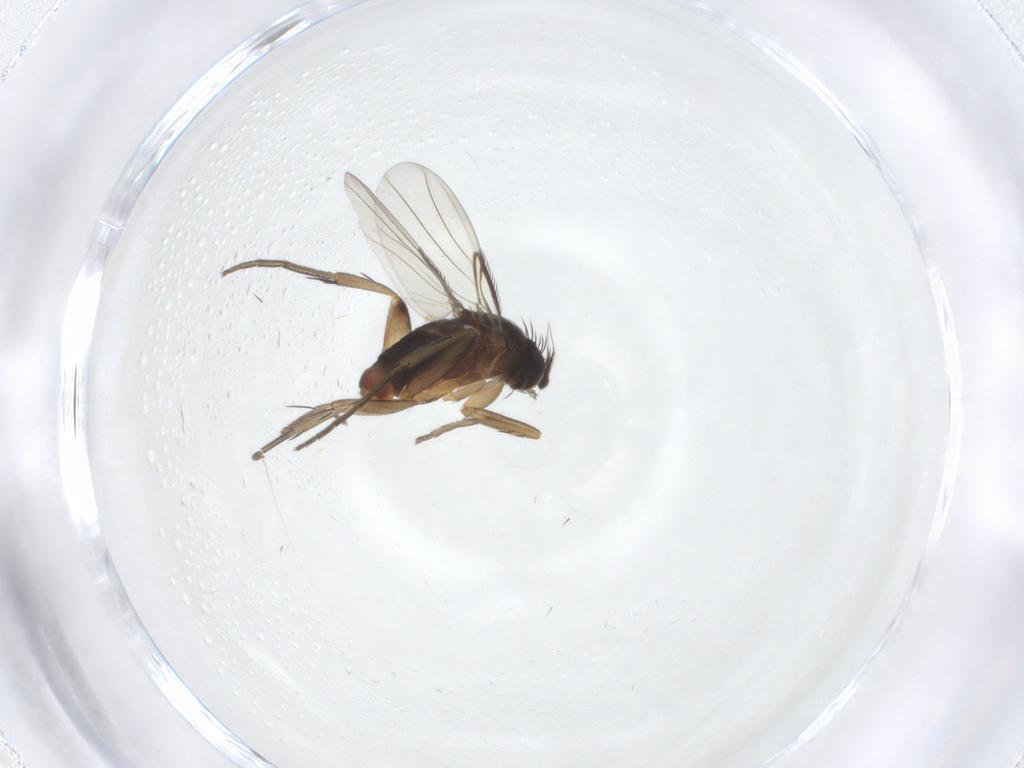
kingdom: Animalia
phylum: Arthropoda
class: Insecta
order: Diptera
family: Phoridae
